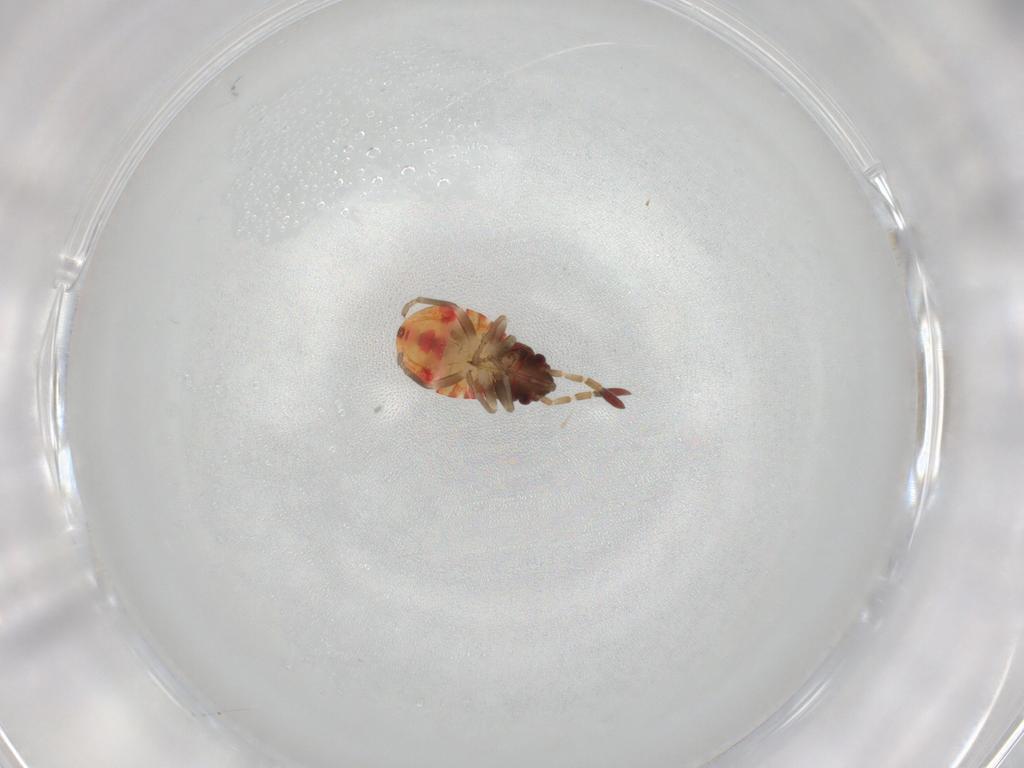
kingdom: Animalia
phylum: Arthropoda
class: Insecta
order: Hemiptera
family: Rhyparochromidae
